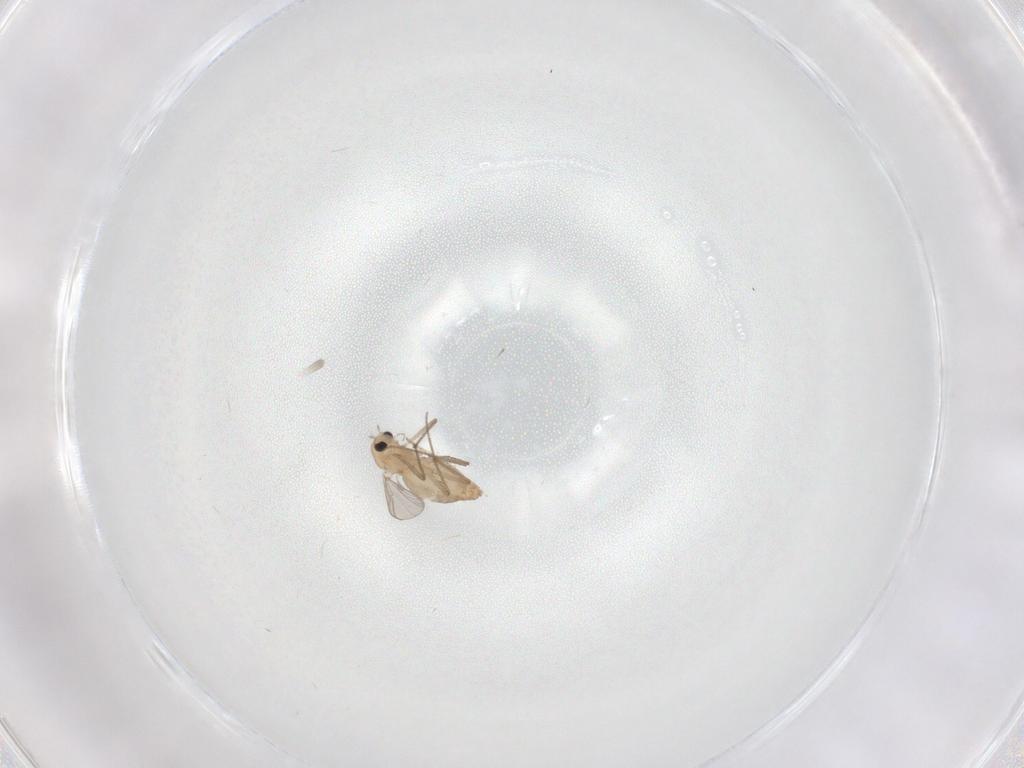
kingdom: Animalia
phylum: Arthropoda
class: Insecta
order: Diptera
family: Chironomidae
